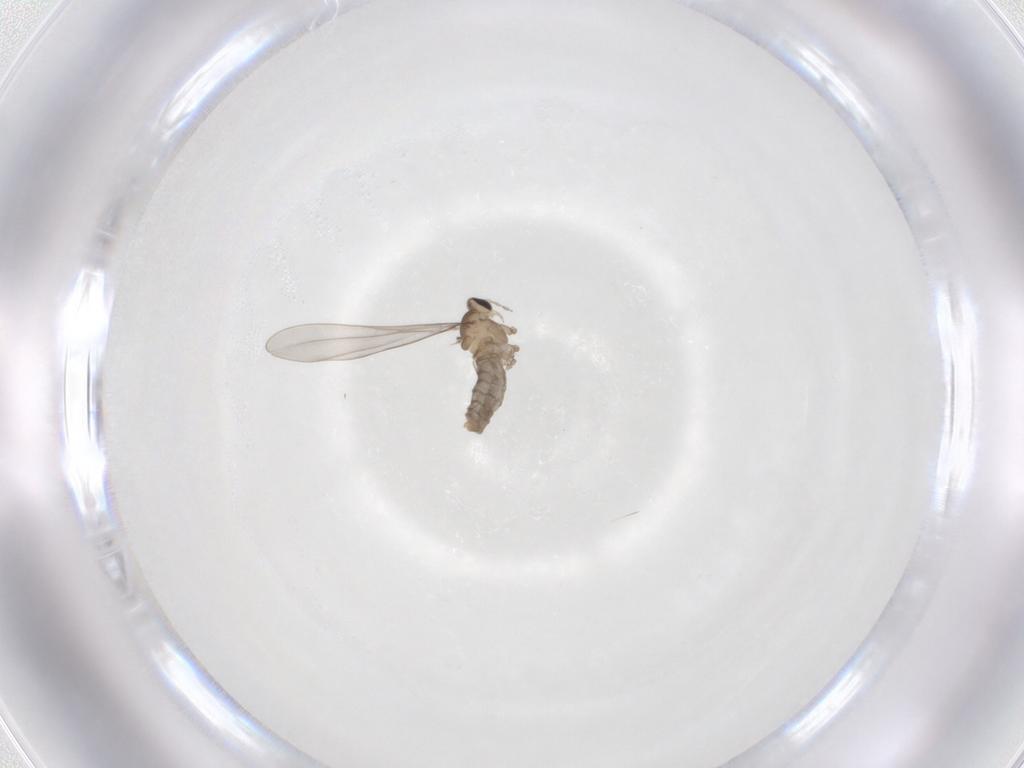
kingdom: Animalia
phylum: Arthropoda
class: Insecta
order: Diptera
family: Cecidomyiidae
